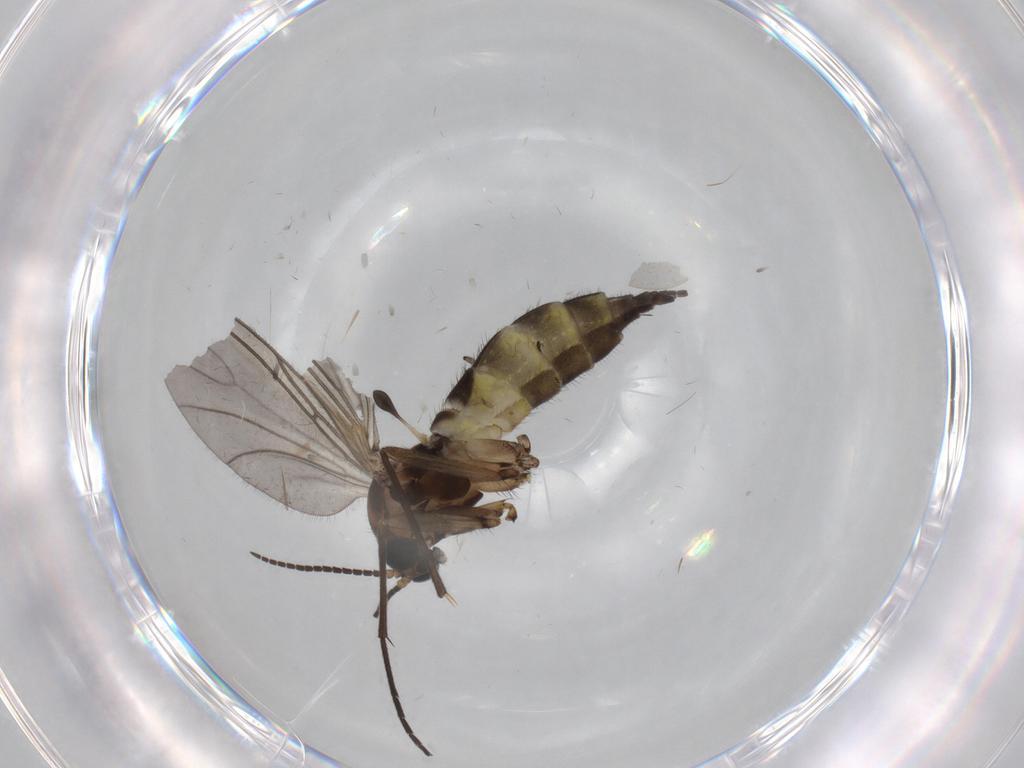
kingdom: Animalia
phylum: Arthropoda
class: Insecta
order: Diptera
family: Sciaridae
